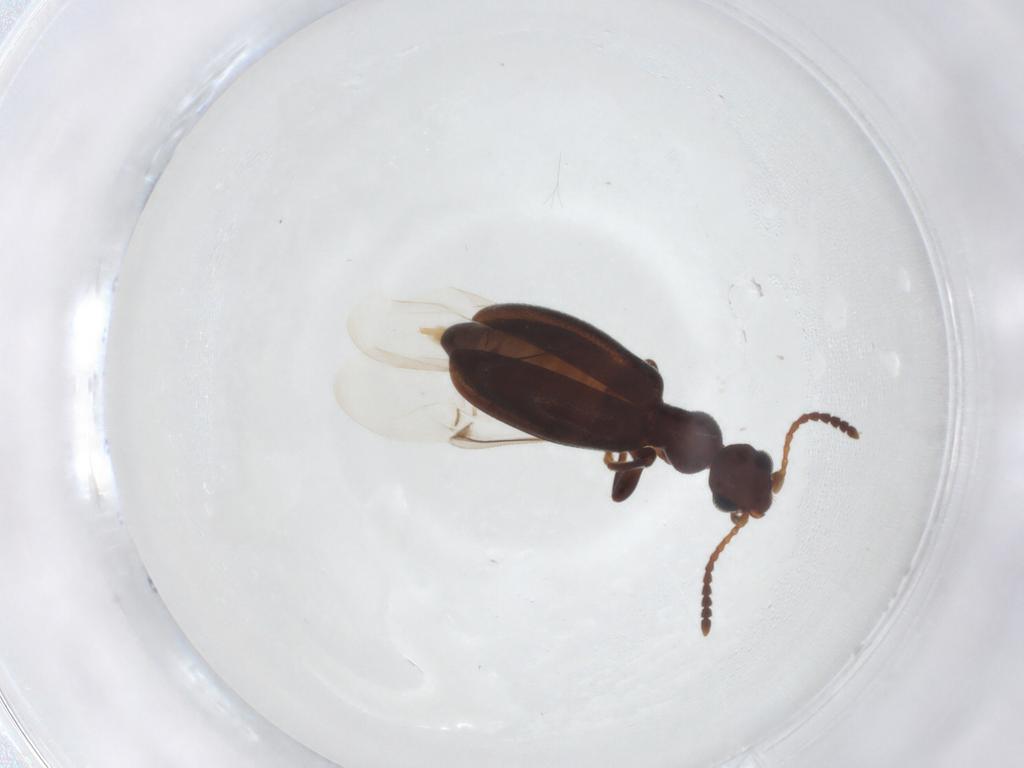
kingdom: Animalia
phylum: Arthropoda
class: Insecta
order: Coleoptera
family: Anthicidae
